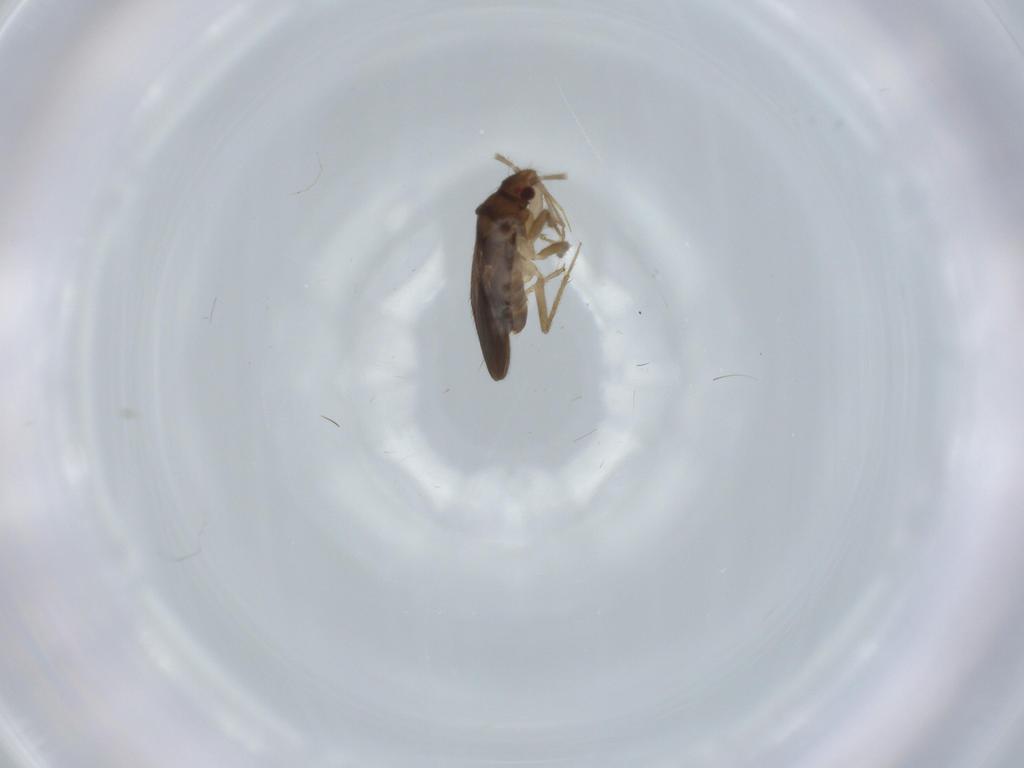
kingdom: Animalia
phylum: Arthropoda
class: Insecta
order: Hemiptera
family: Ceratocombidae
